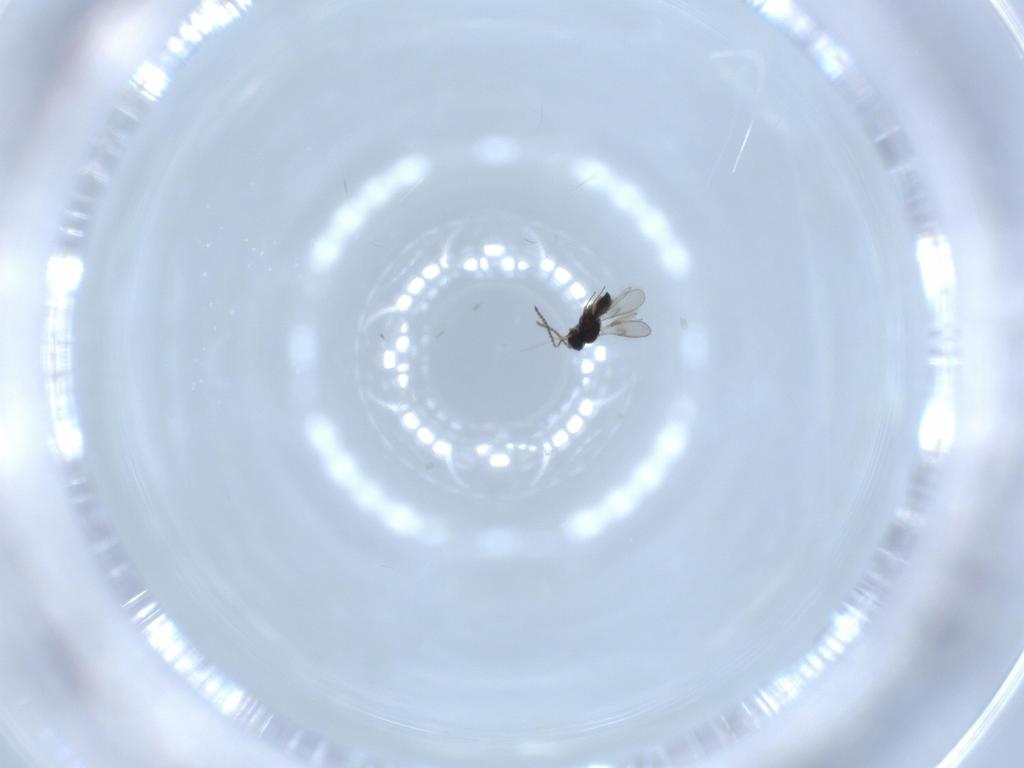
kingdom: Animalia
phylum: Arthropoda
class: Insecta
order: Hymenoptera
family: Scelionidae
